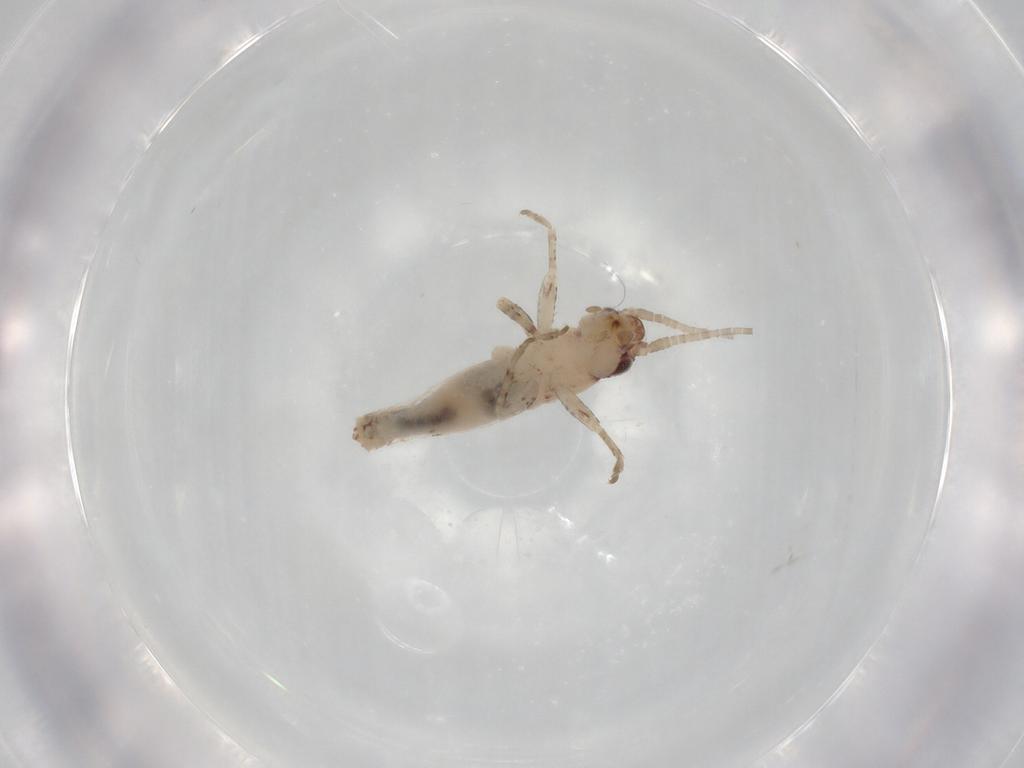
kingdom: Animalia
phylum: Arthropoda
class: Insecta
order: Orthoptera
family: Mogoplistidae
